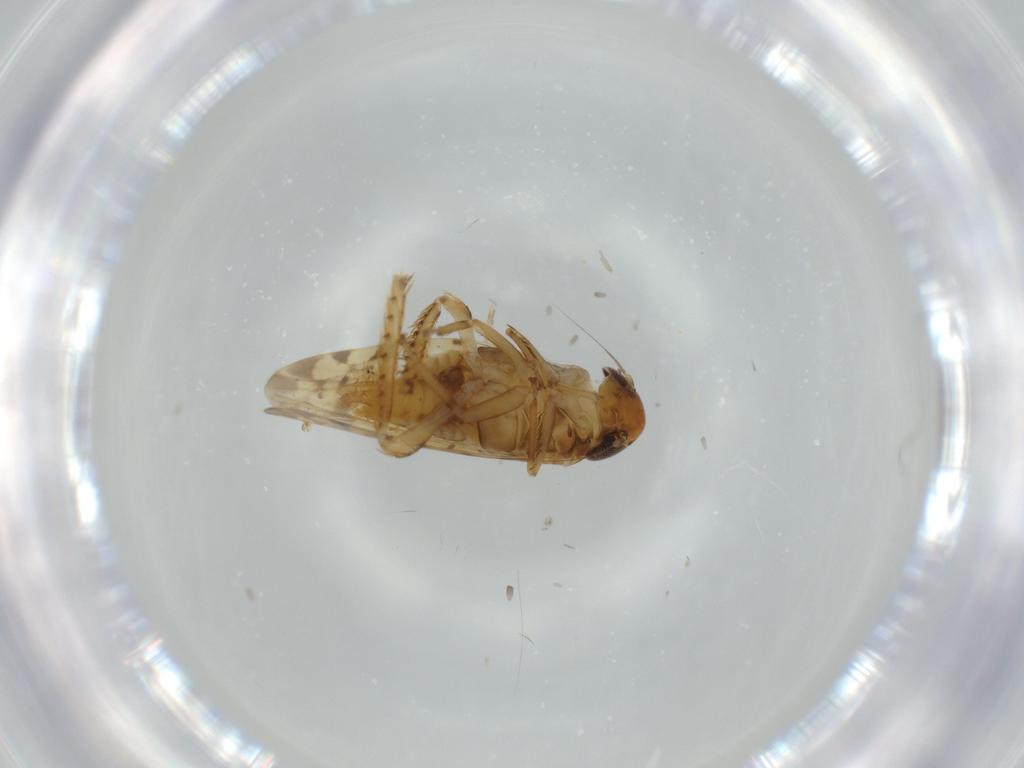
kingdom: Animalia
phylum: Arthropoda
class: Insecta
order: Hemiptera
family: Cicadellidae
